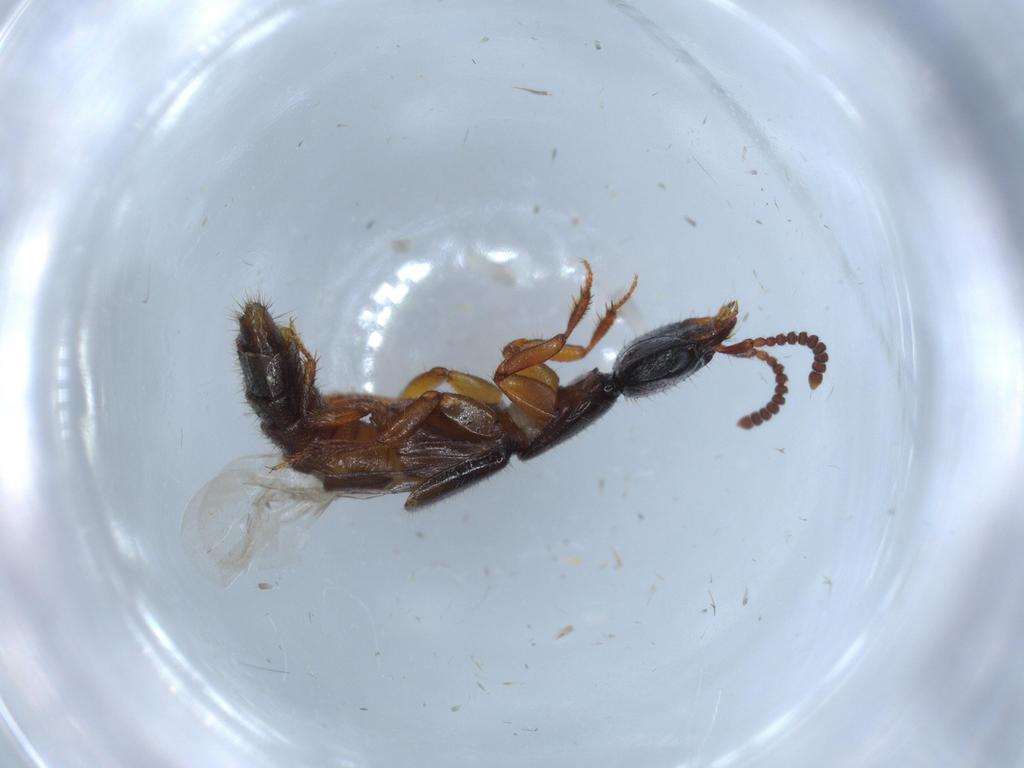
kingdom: Animalia
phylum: Arthropoda
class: Insecta
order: Coleoptera
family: Staphylinidae
